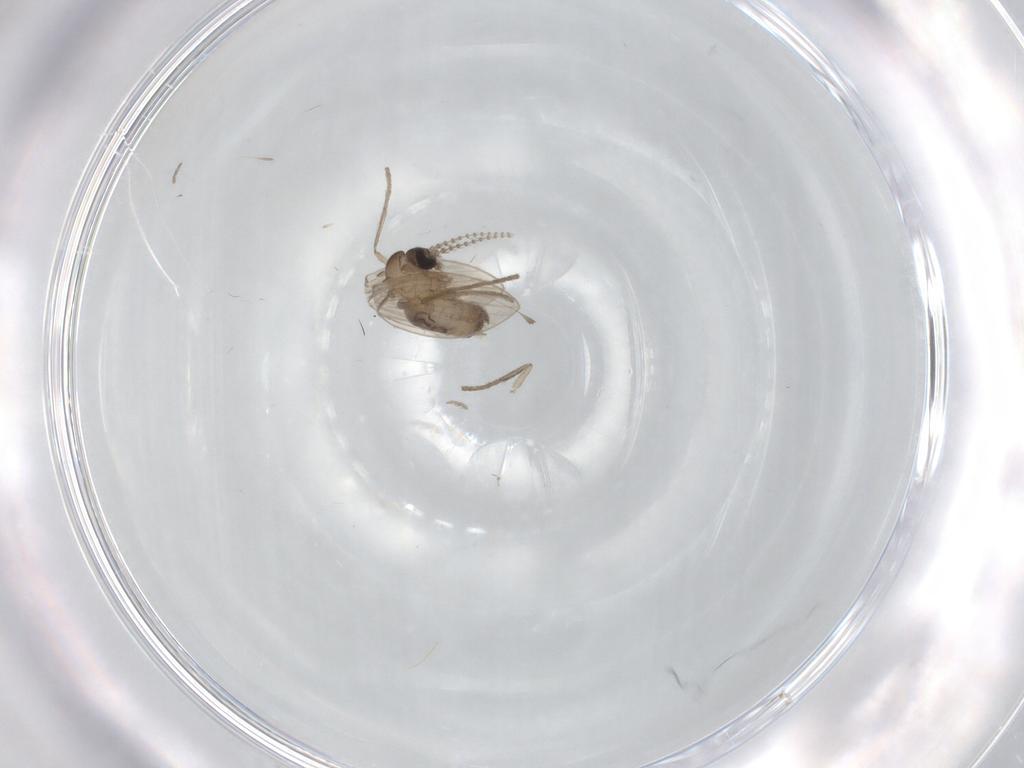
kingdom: Animalia
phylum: Arthropoda
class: Insecta
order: Diptera
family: Psychodidae
